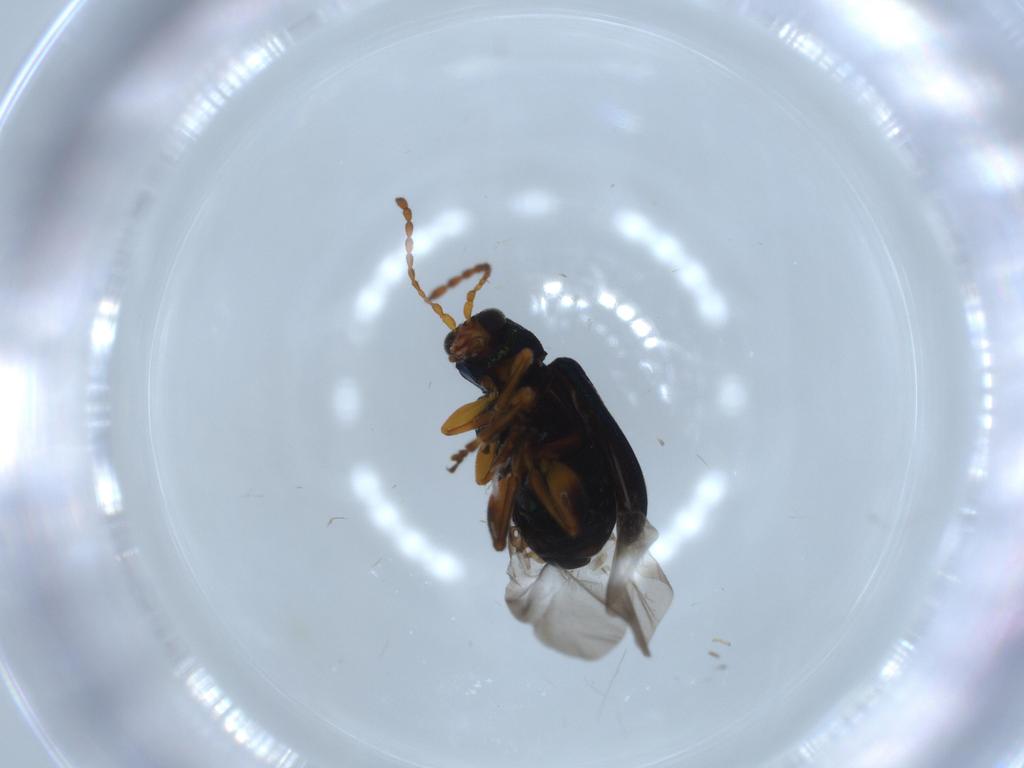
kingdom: Animalia
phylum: Arthropoda
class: Insecta
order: Coleoptera
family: Chrysomelidae
